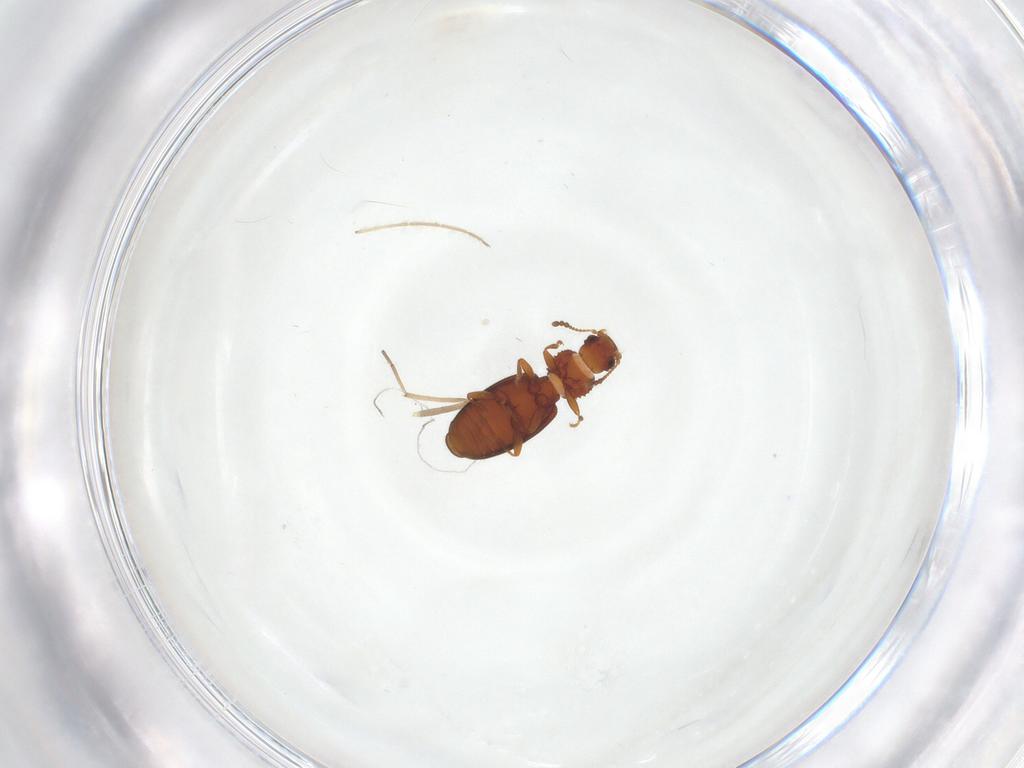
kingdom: Animalia
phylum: Arthropoda
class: Insecta
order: Coleoptera
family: Latridiidae
